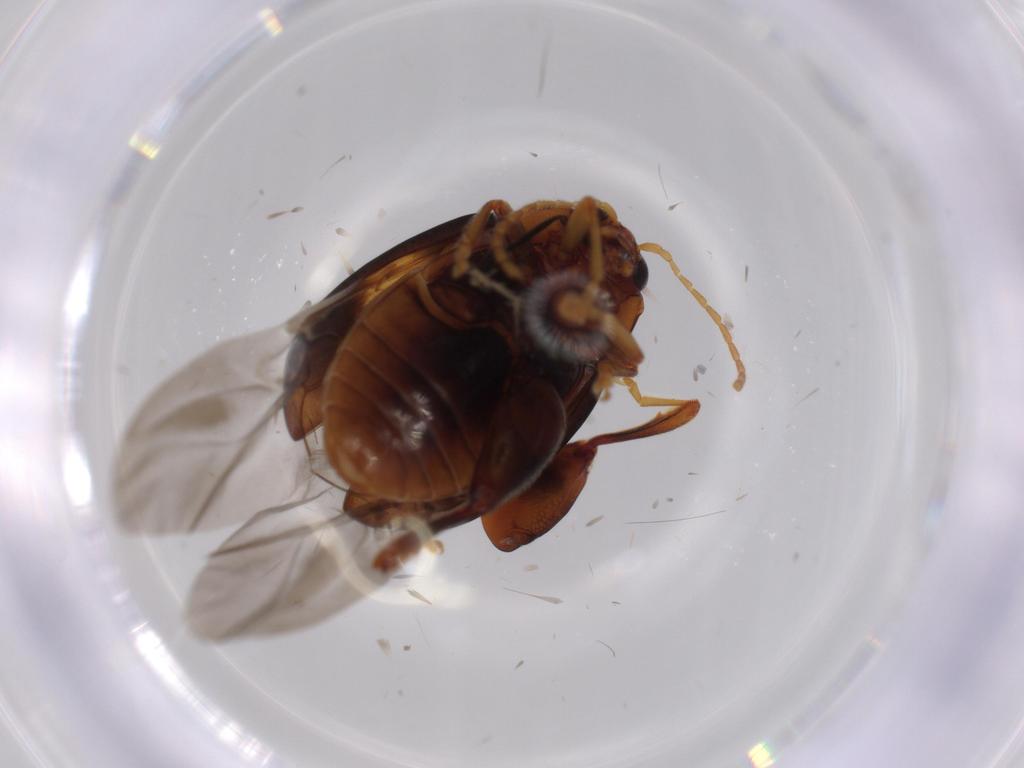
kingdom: Animalia
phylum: Arthropoda
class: Insecta
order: Coleoptera
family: Chrysomelidae
